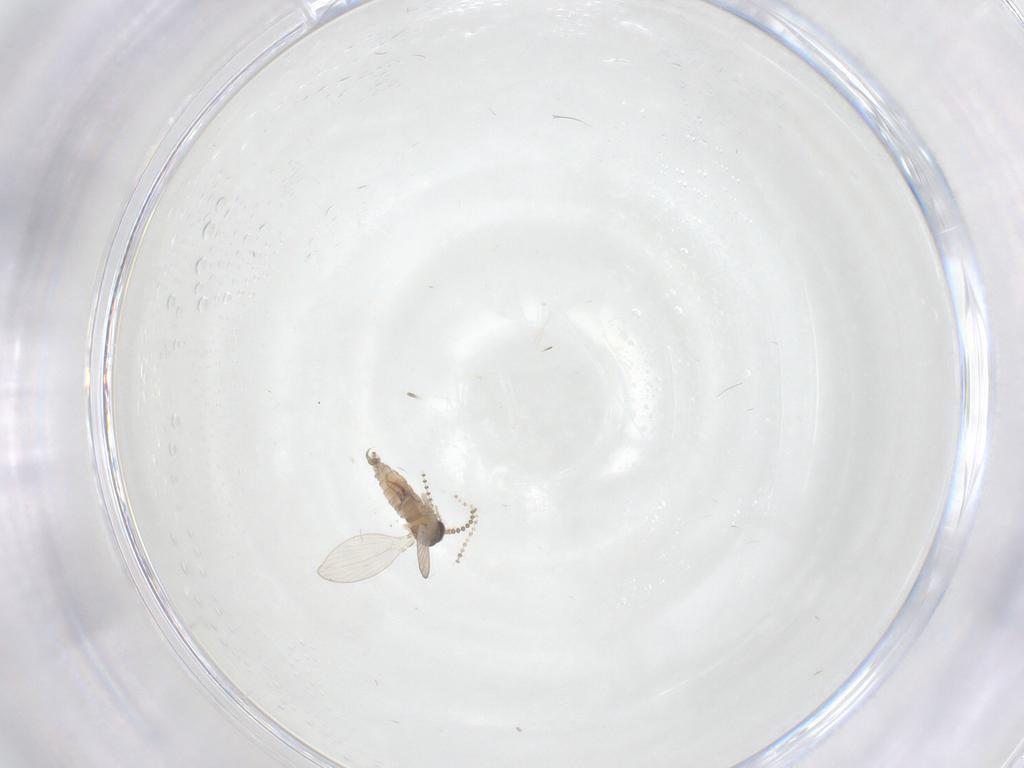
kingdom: Animalia
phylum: Arthropoda
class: Insecta
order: Diptera
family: Psychodidae
